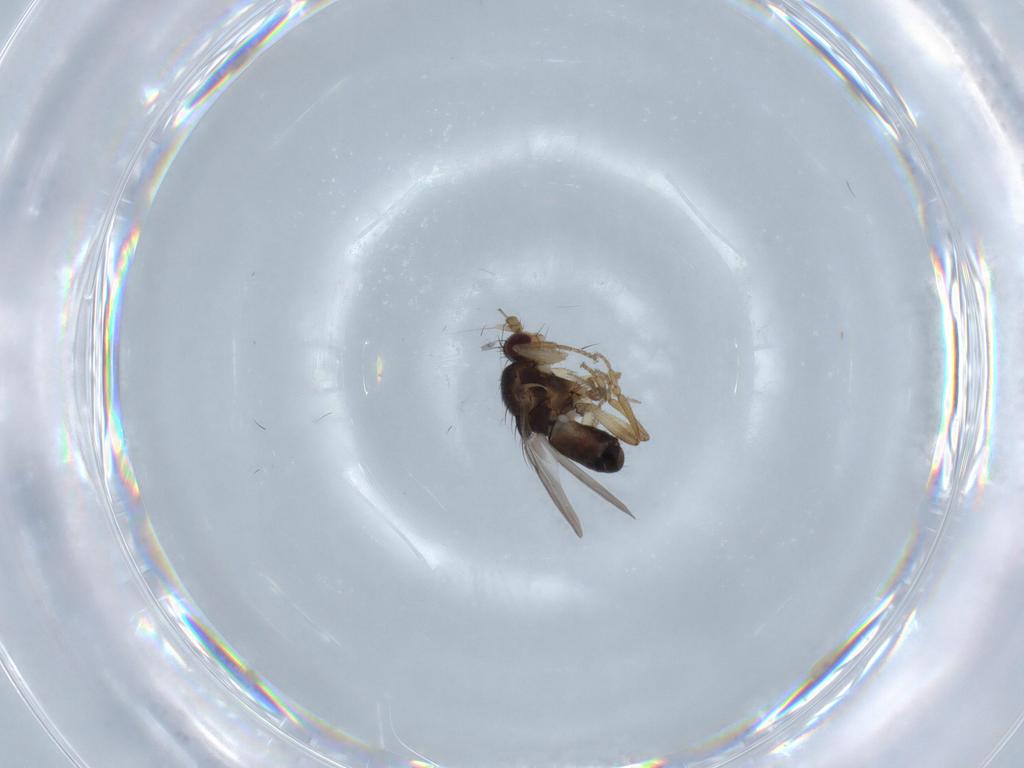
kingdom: Animalia
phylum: Arthropoda
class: Insecta
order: Diptera
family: Chironomidae
